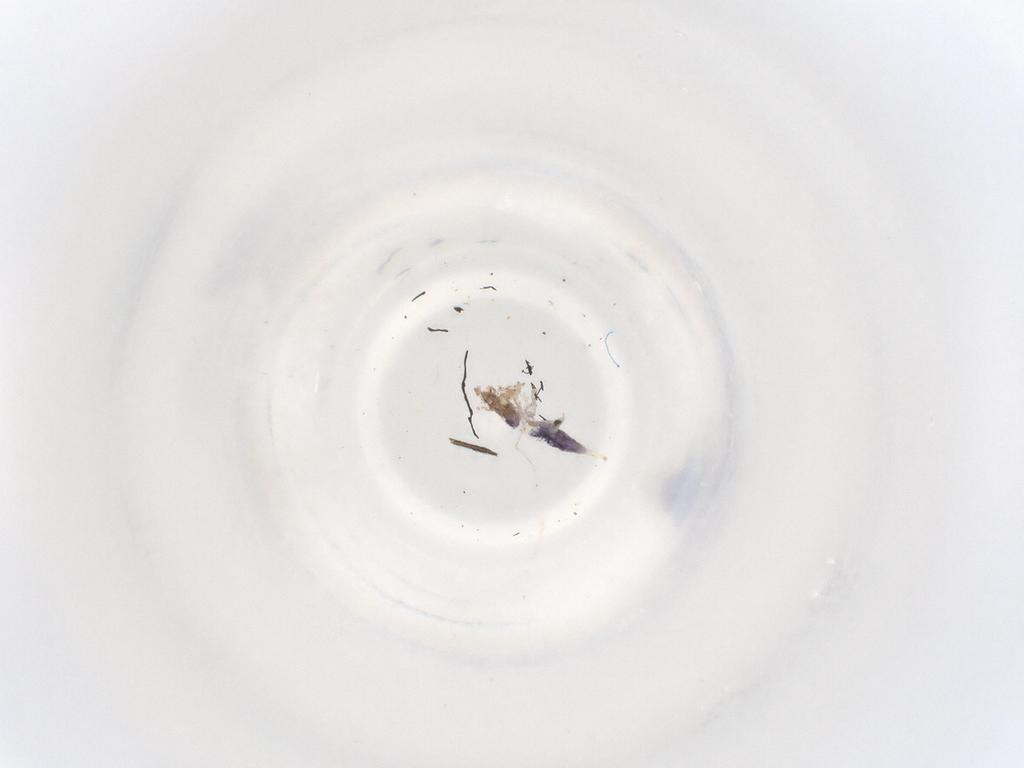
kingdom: Animalia
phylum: Arthropoda
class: Collembola
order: Entomobryomorpha
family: Isotomidae
